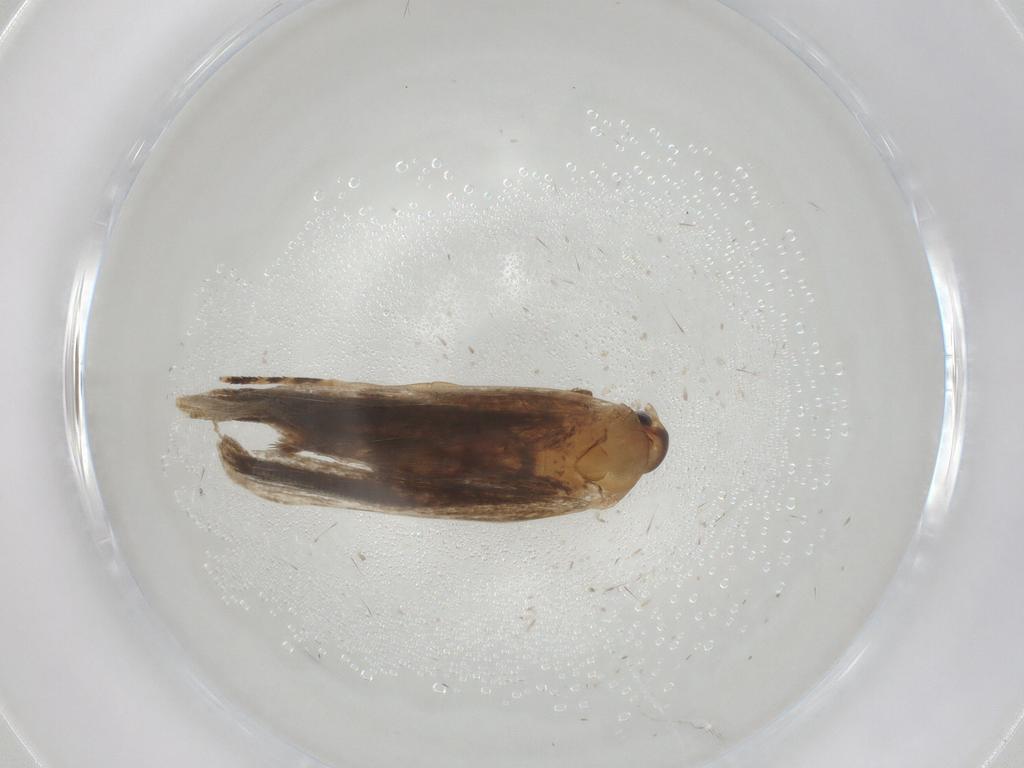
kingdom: Animalia
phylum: Arthropoda
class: Insecta
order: Lepidoptera
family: Gelechiidae
